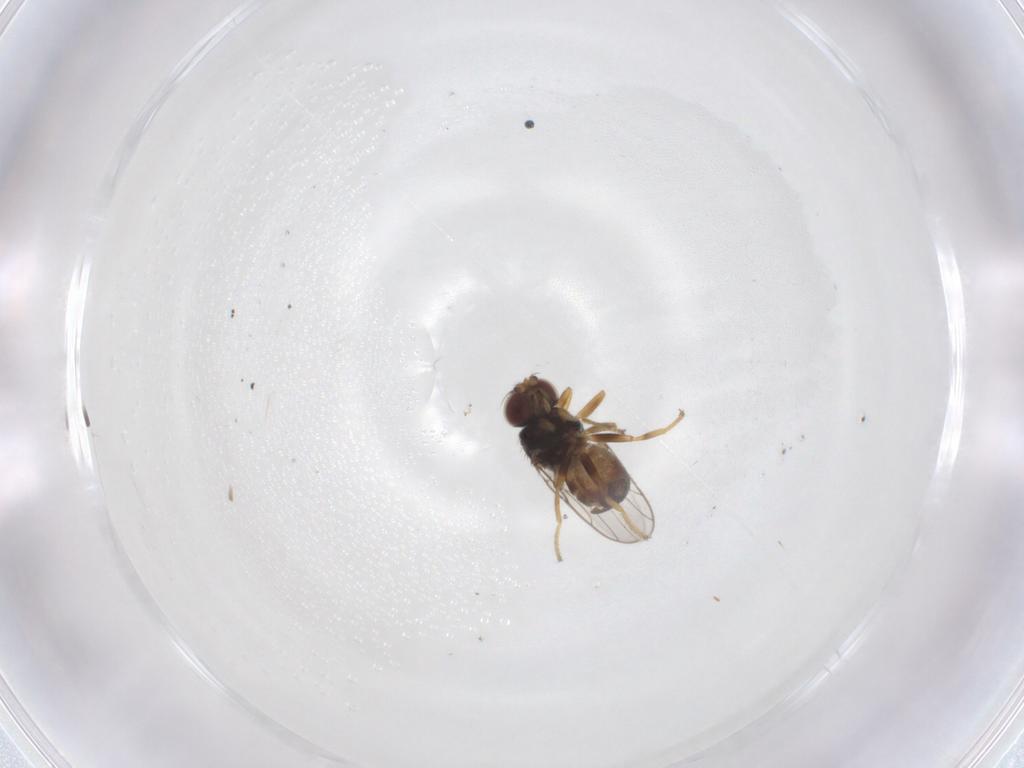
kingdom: Animalia
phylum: Arthropoda
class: Insecta
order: Diptera
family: Chloropidae
